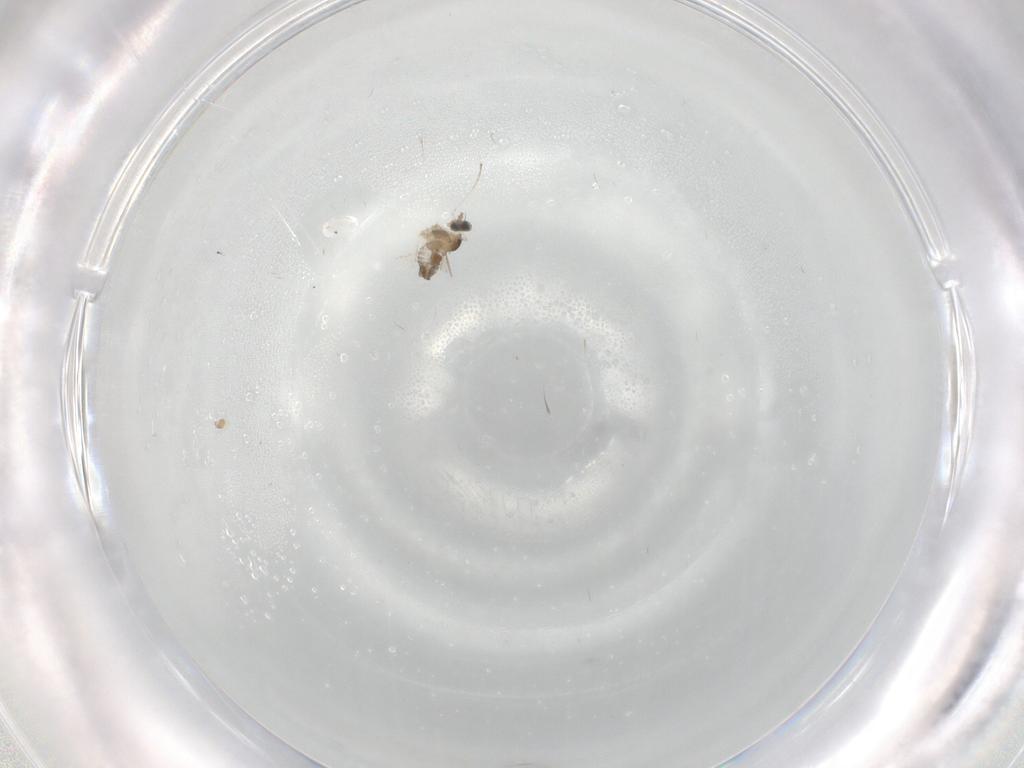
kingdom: Animalia
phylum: Arthropoda
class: Insecta
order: Diptera
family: Cecidomyiidae
